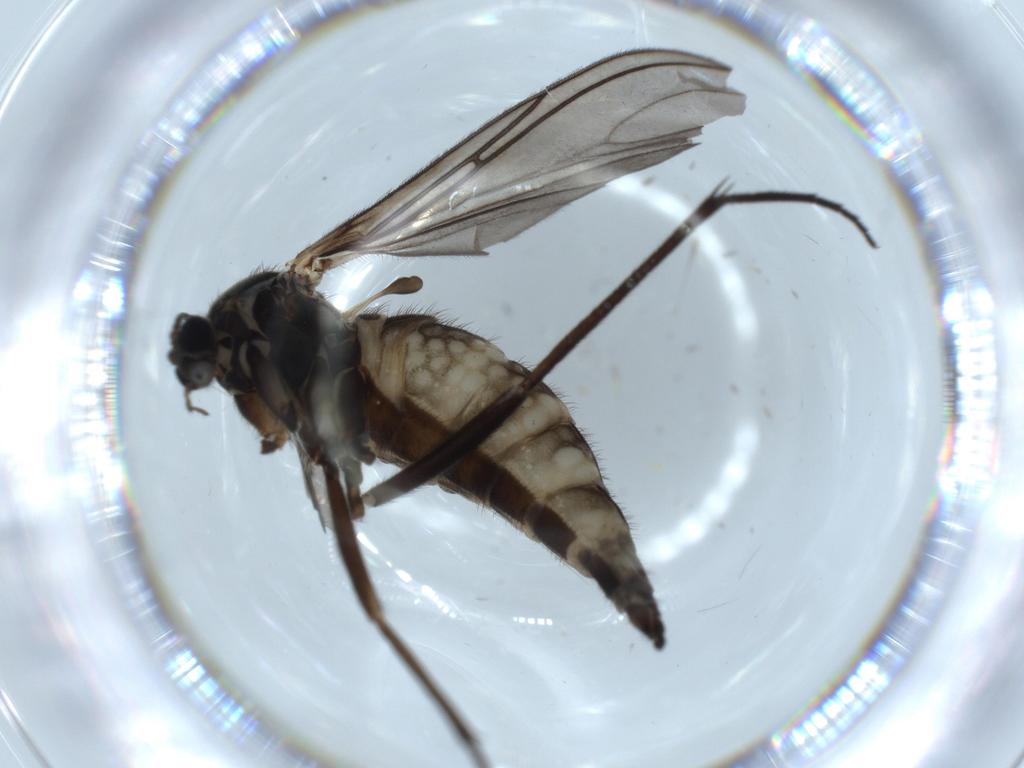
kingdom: Animalia
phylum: Arthropoda
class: Insecta
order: Diptera
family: Sciaridae
